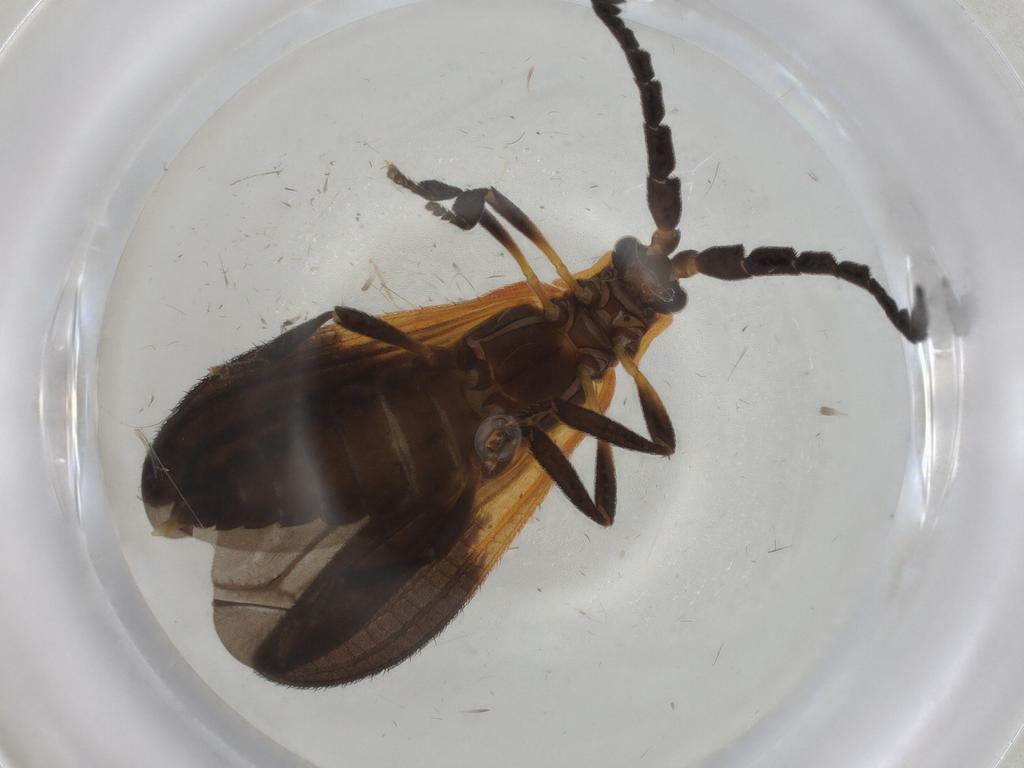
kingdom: Animalia
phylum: Arthropoda
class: Insecta
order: Coleoptera
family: Lycidae
